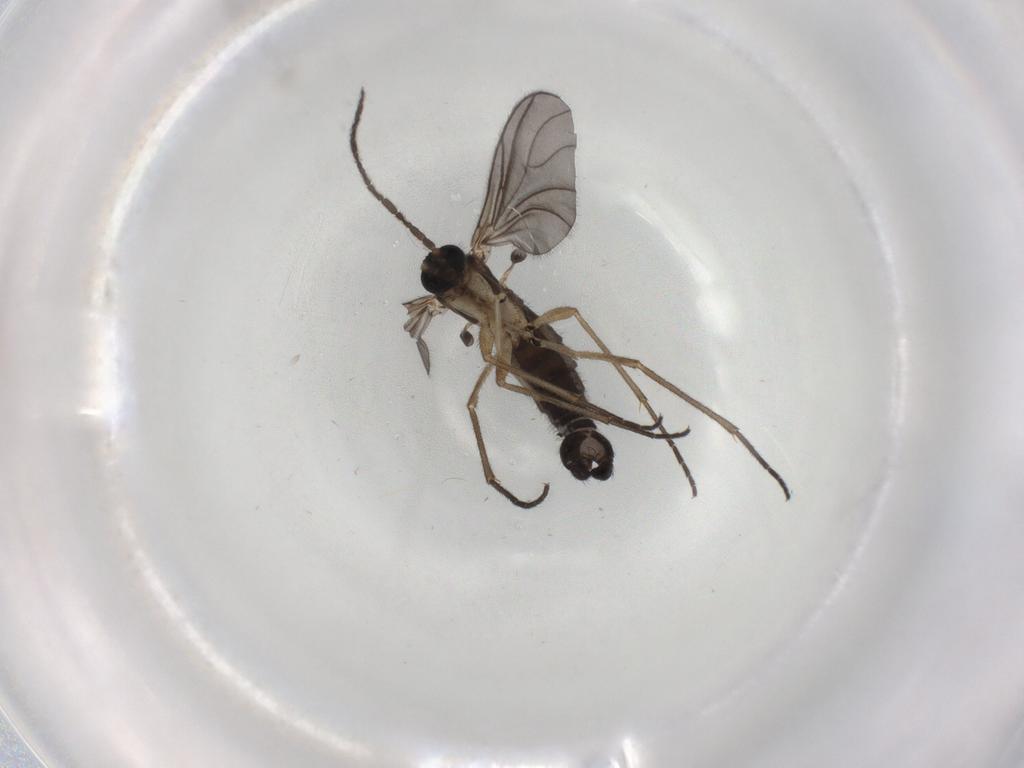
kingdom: Animalia
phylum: Arthropoda
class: Insecta
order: Diptera
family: Sciaridae
